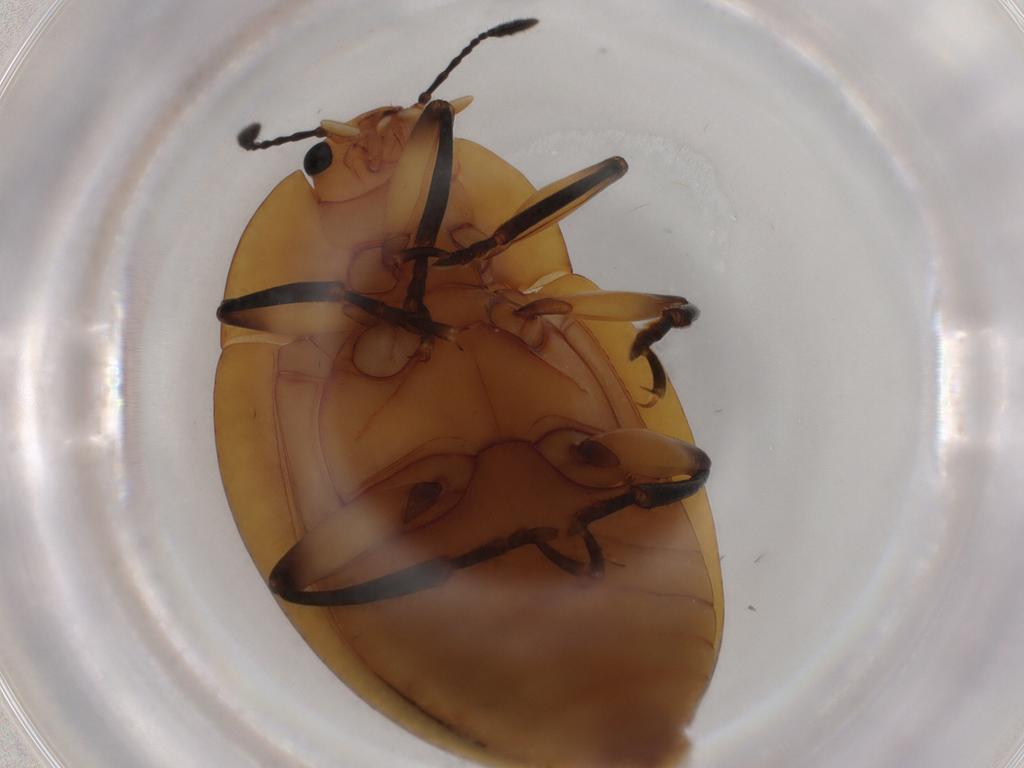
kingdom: Animalia
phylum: Arthropoda
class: Insecta
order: Coleoptera
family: Erotylidae
